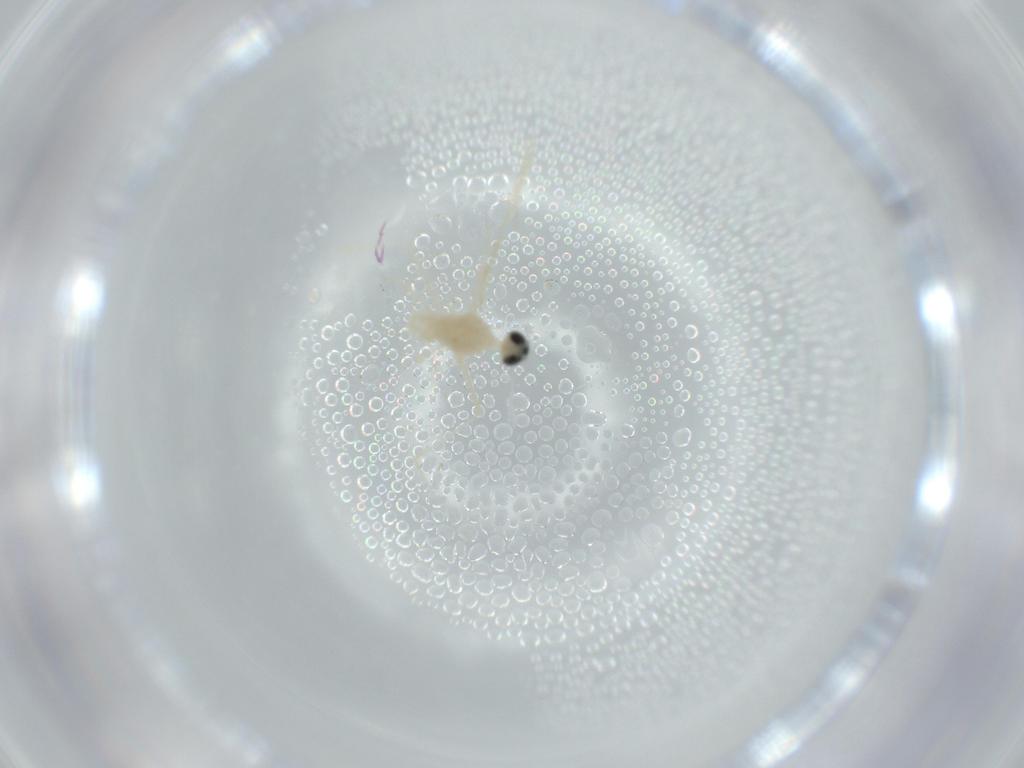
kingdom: Animalia
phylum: Arthropoda
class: Insecta
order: Diptera
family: Cecidomyiidae
